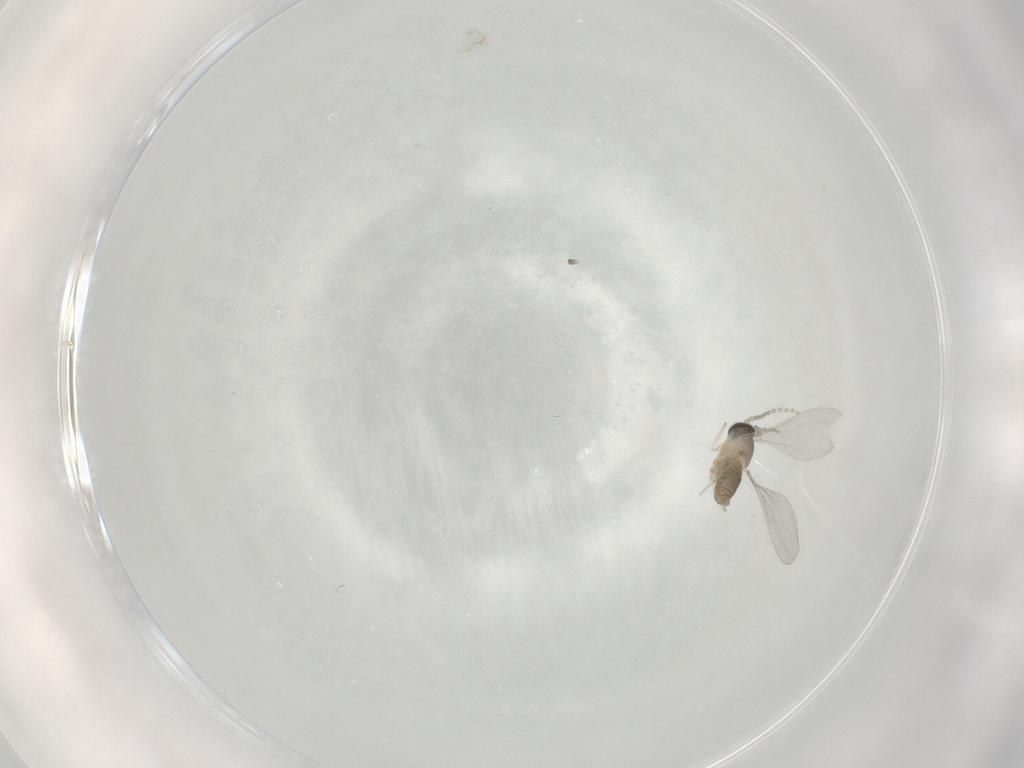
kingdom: Animalia
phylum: Arthropoda
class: Insecta
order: Diptera
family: Cecidomyiidae
